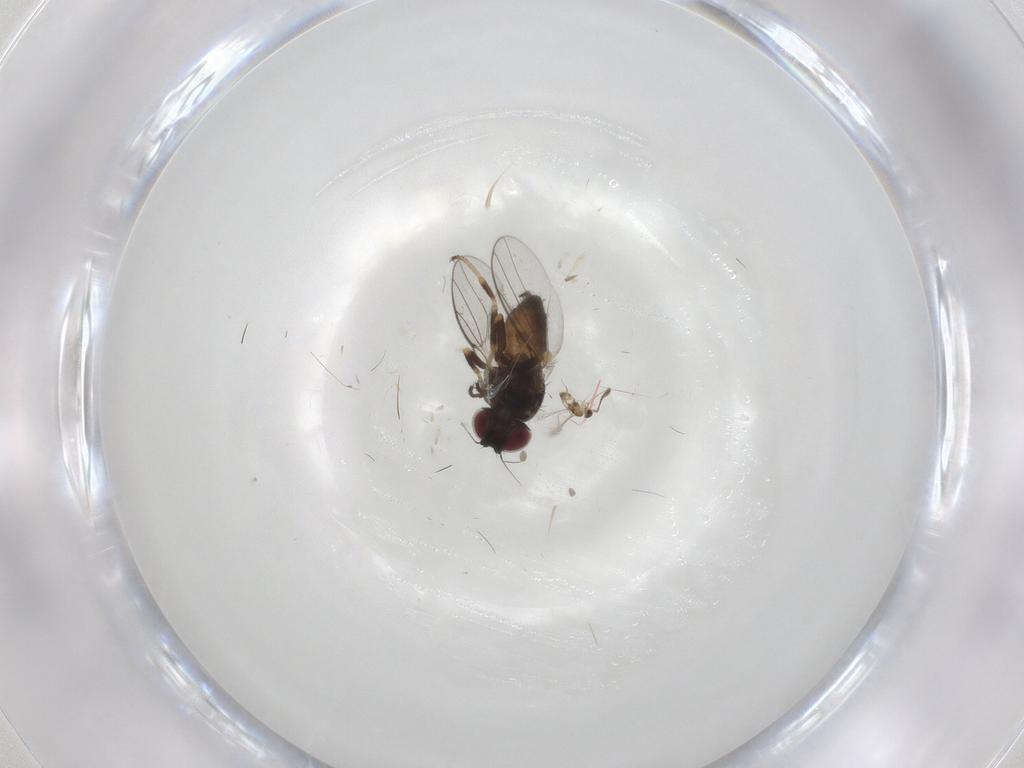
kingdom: Animalia
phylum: Arthropoda
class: Insecta
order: Diptera
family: Chloropidae
